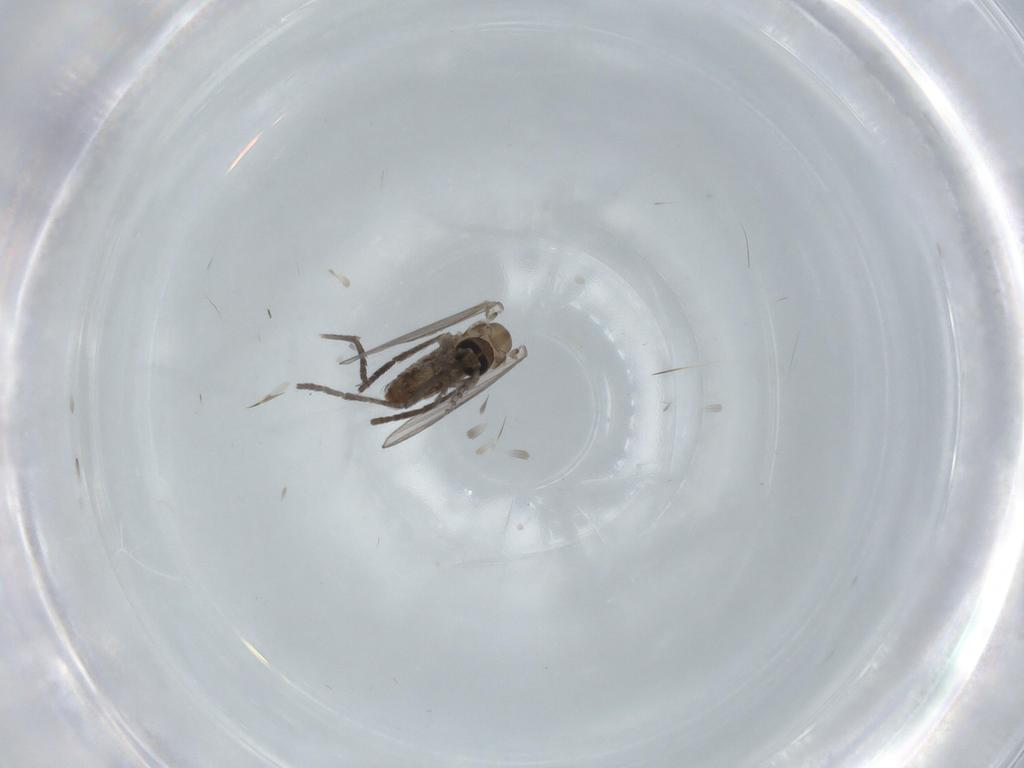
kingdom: Animalia
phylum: Arthropoda
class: Insecta
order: Diptera
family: Psychodidae
